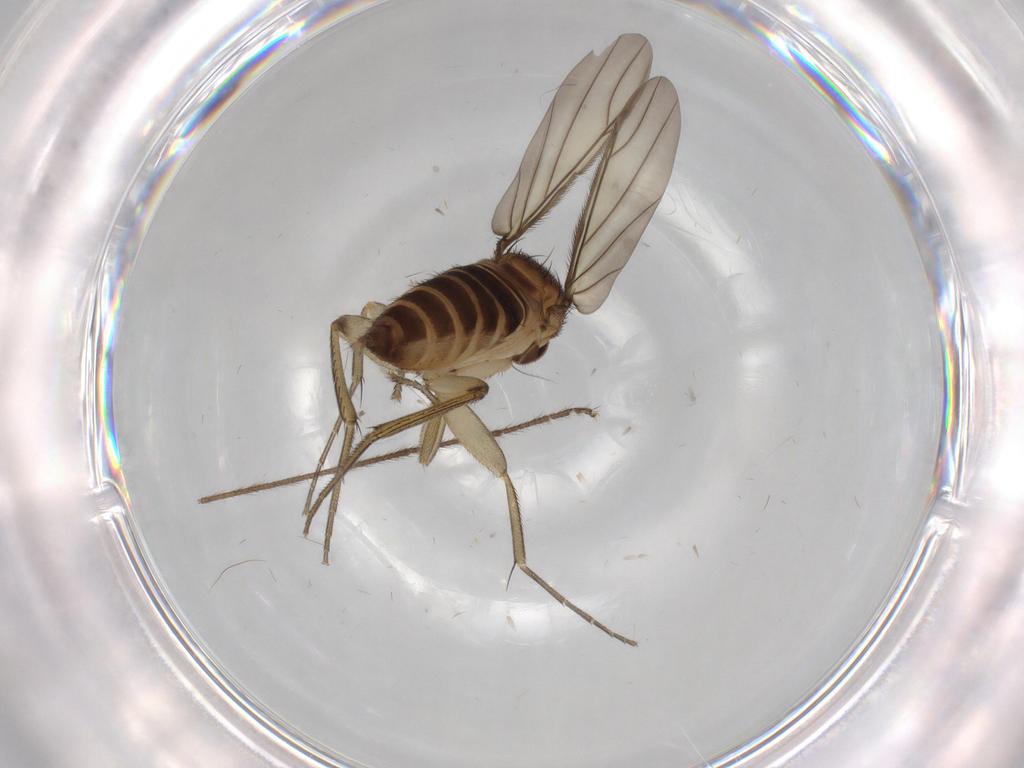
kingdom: Animalia
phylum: Arthropoda
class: Insecta
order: Diptera
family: Phoridae
